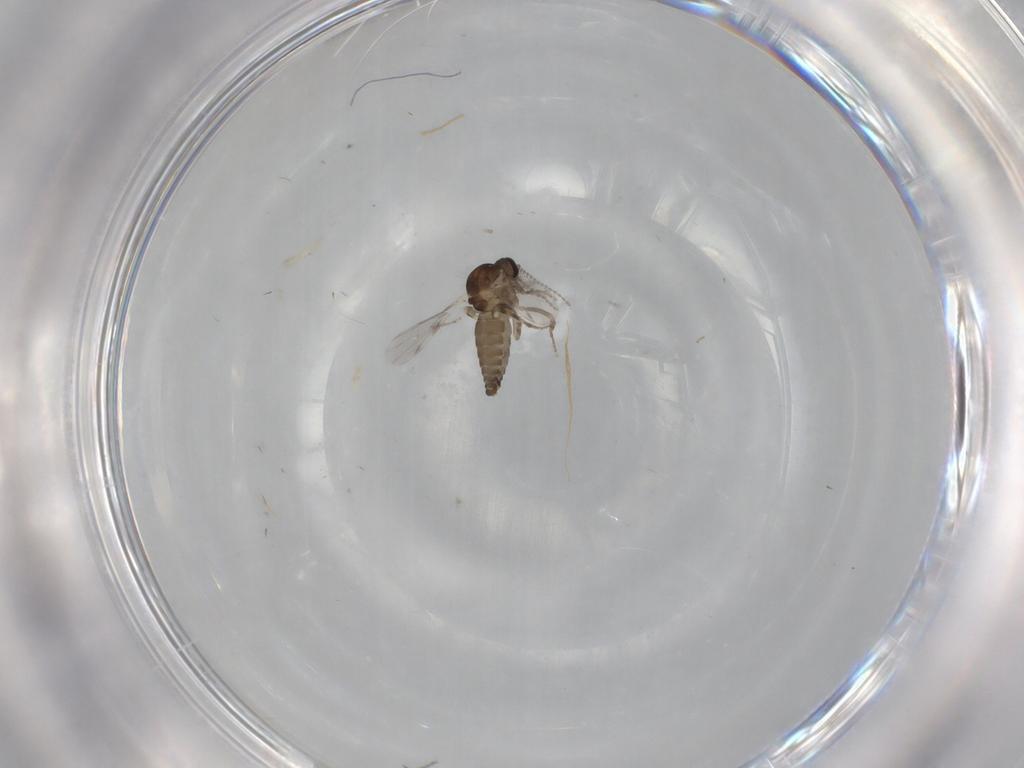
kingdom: Animalia
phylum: Arthropoda
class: Insecta
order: Diptera
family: Ceratopogonidae
